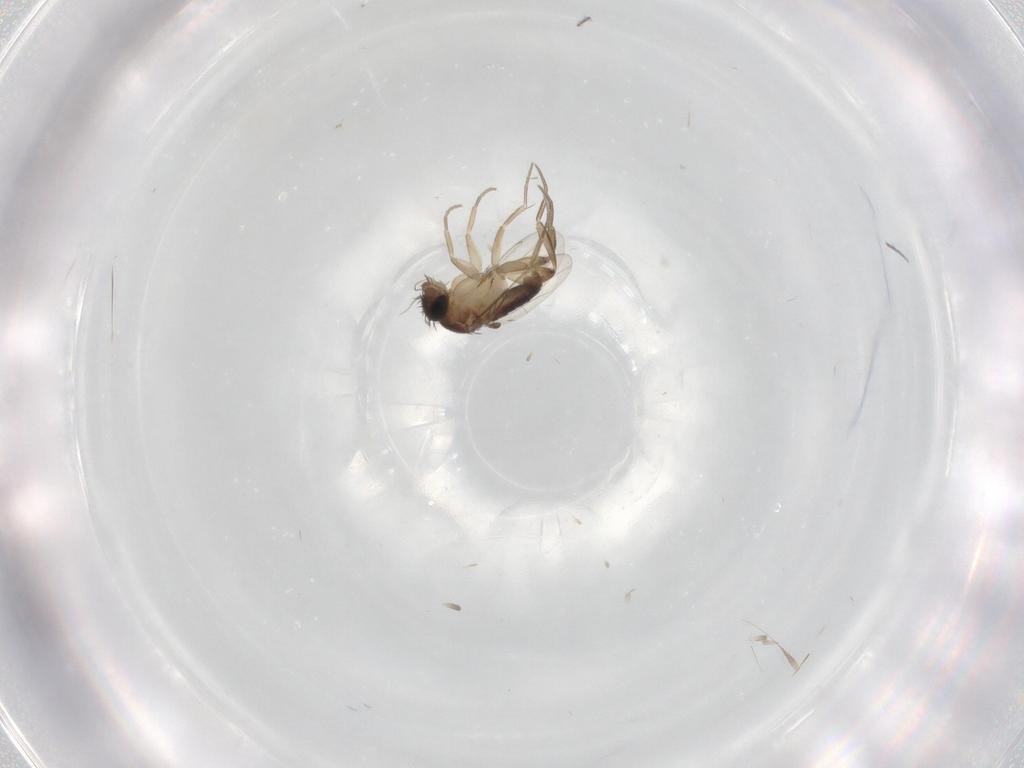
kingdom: Animalia
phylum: Arthropoda
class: Insecta
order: Diptera
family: Phoridae
